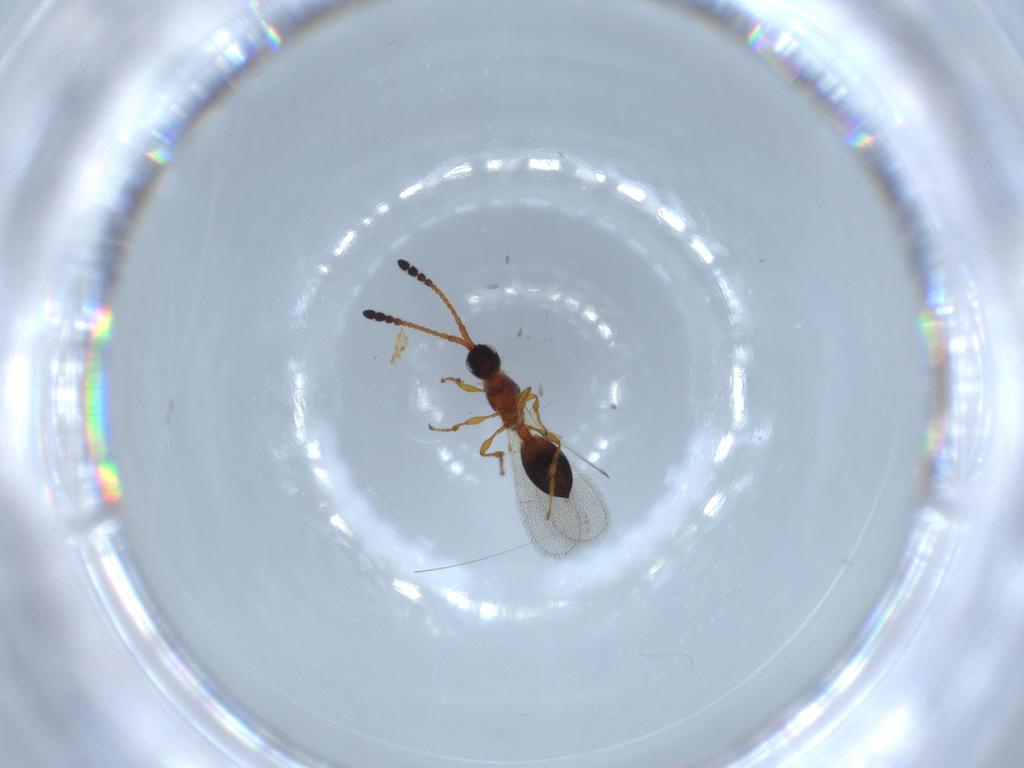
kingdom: Animalia
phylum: Arthropoda
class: Insecta
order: Hymenoptera
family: Diapriidae
